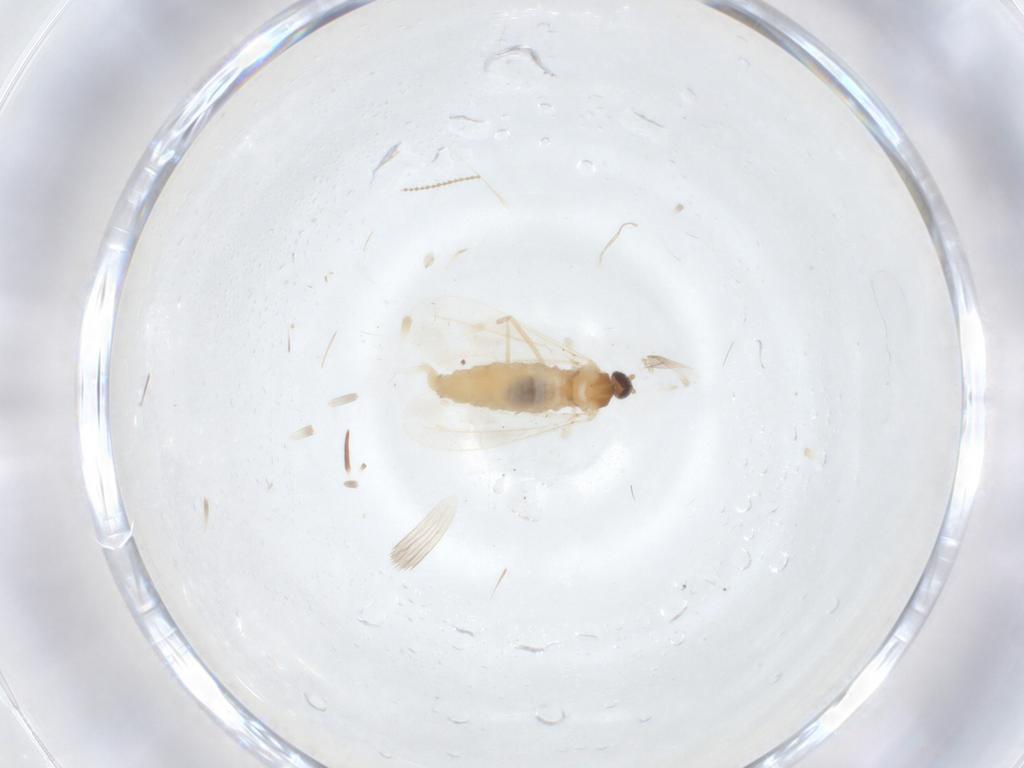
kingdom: Animalia
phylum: Arthropoda
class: Insecta
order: Diptera
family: Cecidomyiidae
